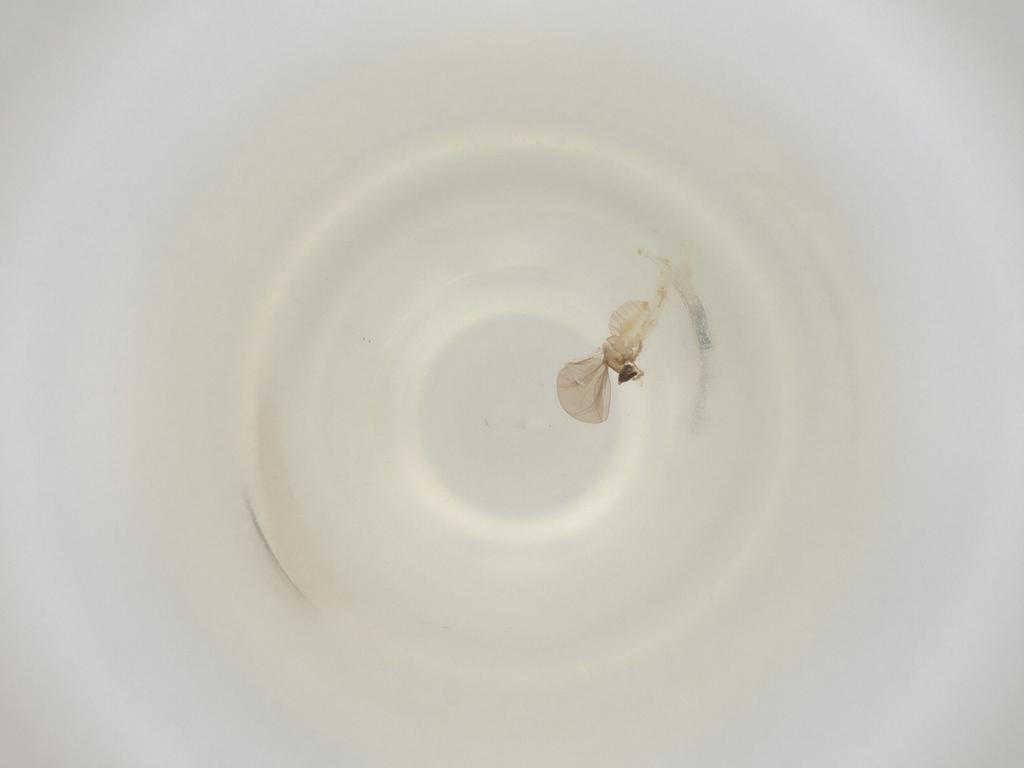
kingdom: Animalia
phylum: Arthropoda
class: Insecta
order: Diptera
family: Cecidomyiidae
